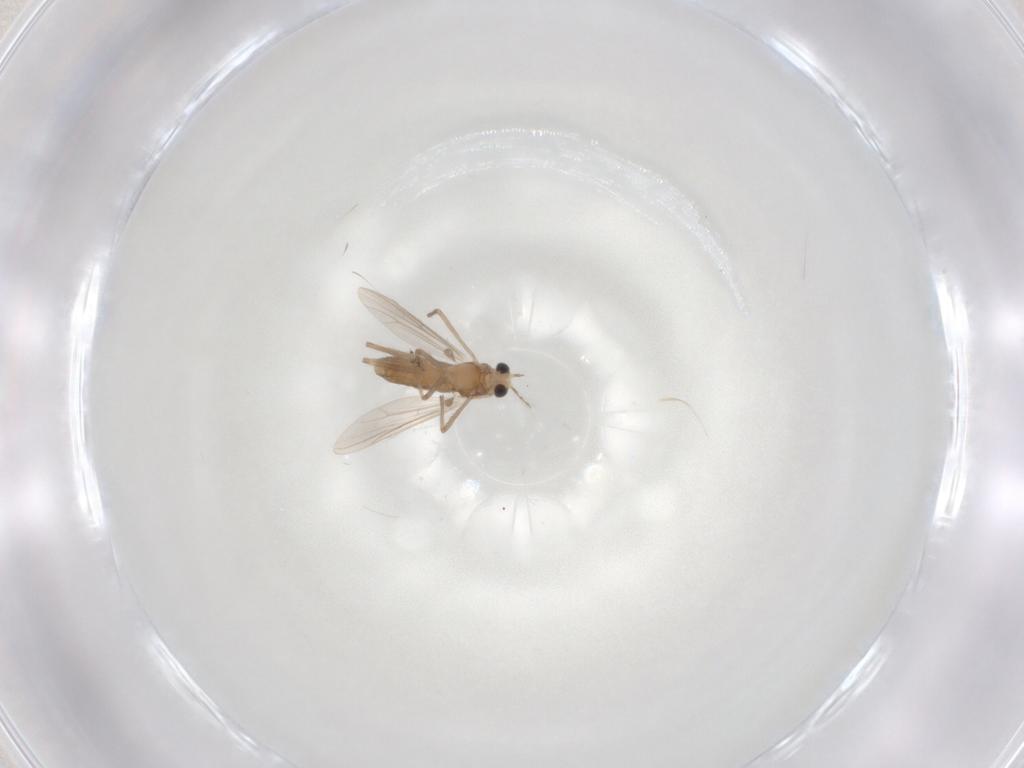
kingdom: Animalia
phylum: Arthropoda
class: Insecta
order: Diptera
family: Chironomidae
